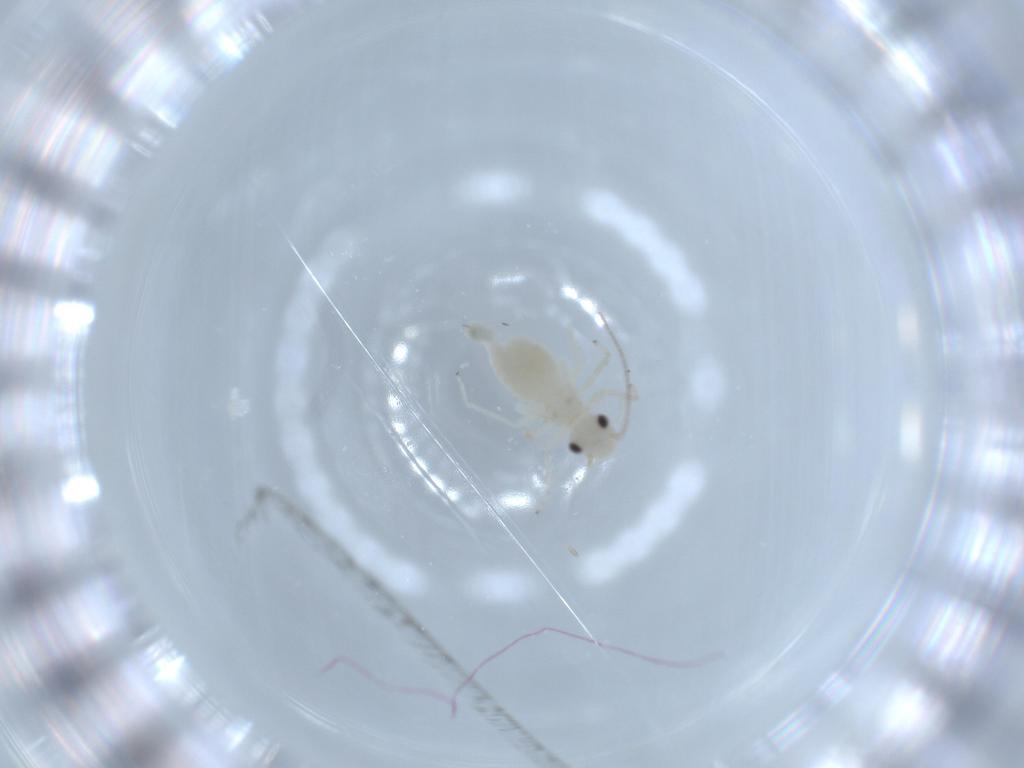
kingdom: Animalia
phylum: Arthropoda
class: Insecta
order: Psocodea
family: Caeciliusidae
